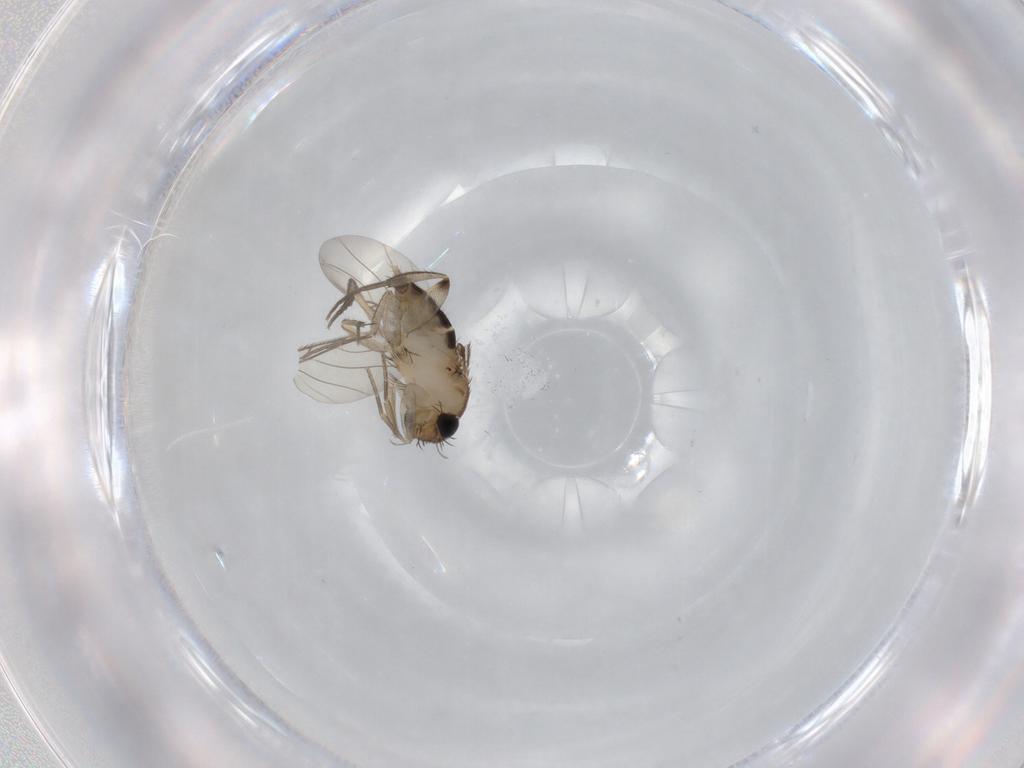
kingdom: Animalia
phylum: Arthropoda
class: Insecta
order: Diptera
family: Phoridae
